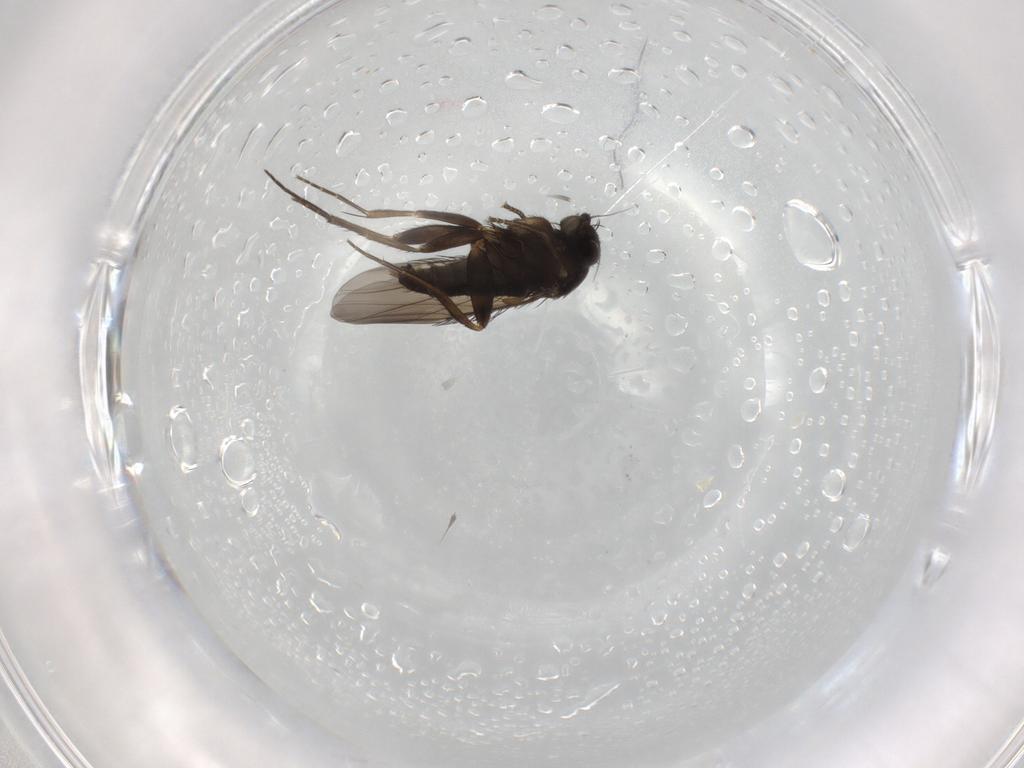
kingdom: Animalia
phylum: Arthropoda
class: Insecta
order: Diptera
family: Phoridae
